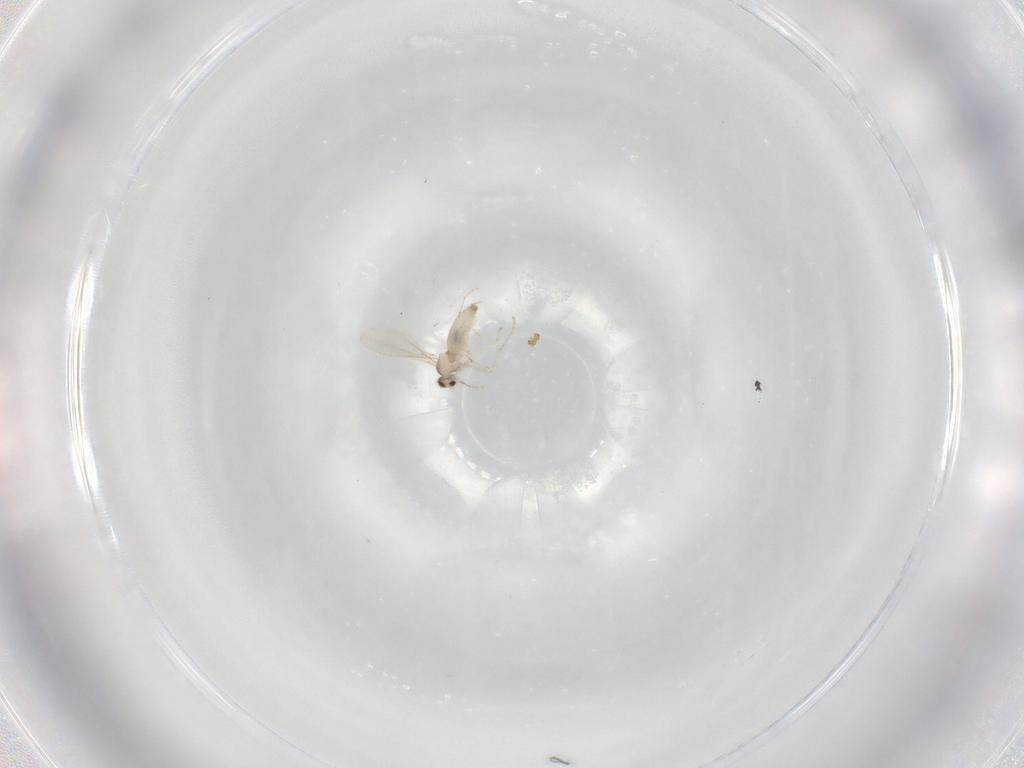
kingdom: Animalia
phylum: Arthropoda
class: Insecta
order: Diptera
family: Cecidomyiidae
